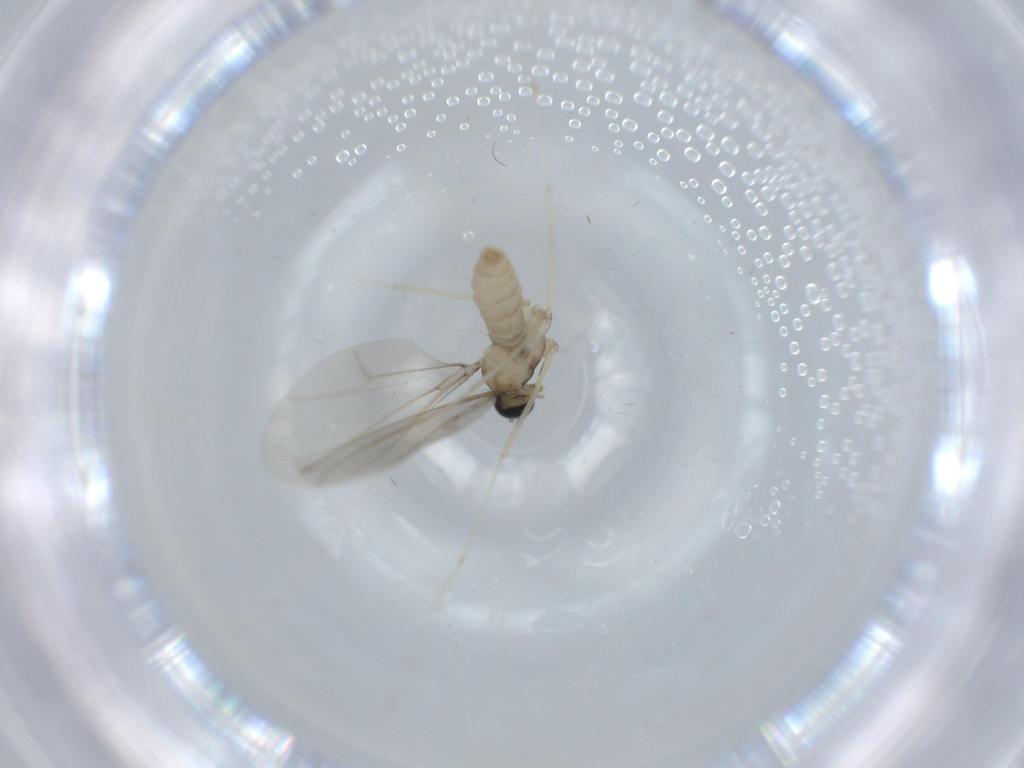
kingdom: Animalia
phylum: Arthropoda
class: Insecta
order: Diptera
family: Cecidomyiidae
